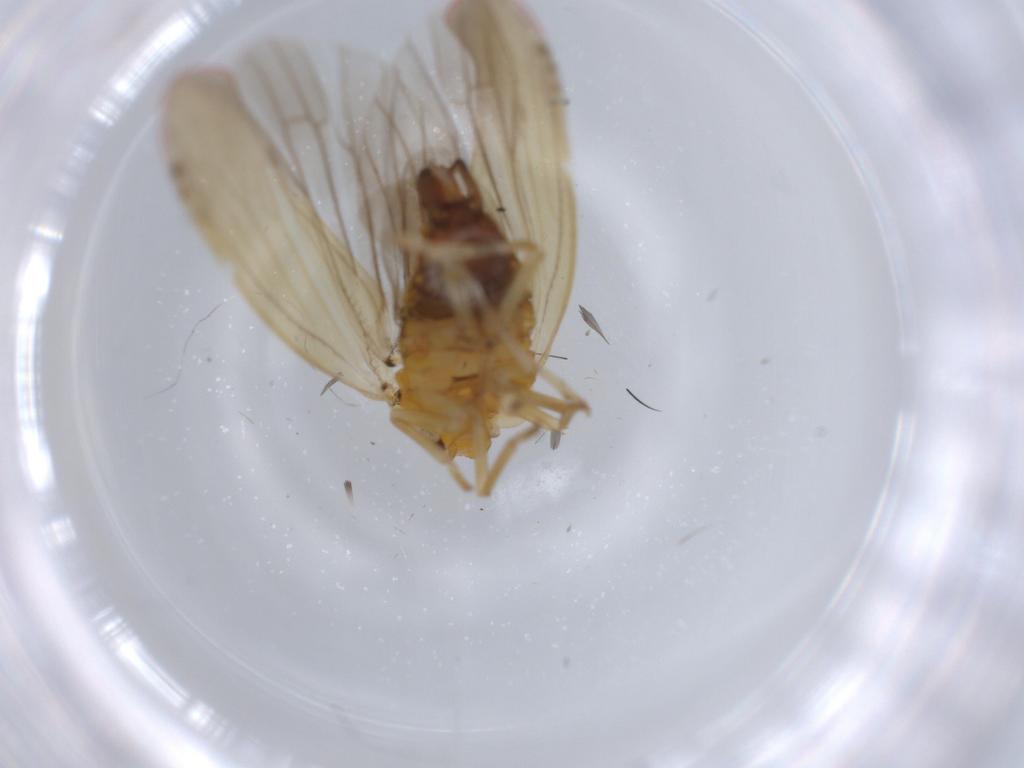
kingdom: Animalia
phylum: Arthropoda
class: Insecta
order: Hemiptera
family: Derbidae
